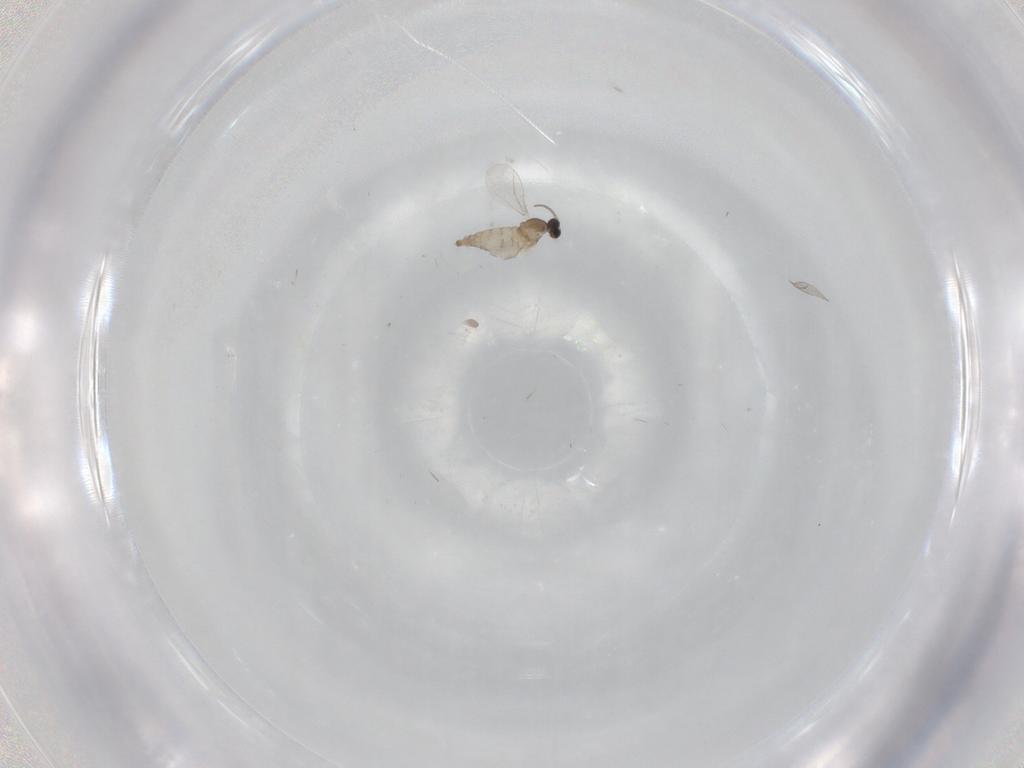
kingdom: Animalia
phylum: Arthropoda
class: Insecta
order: Diptera
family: Cecidomyiidae
